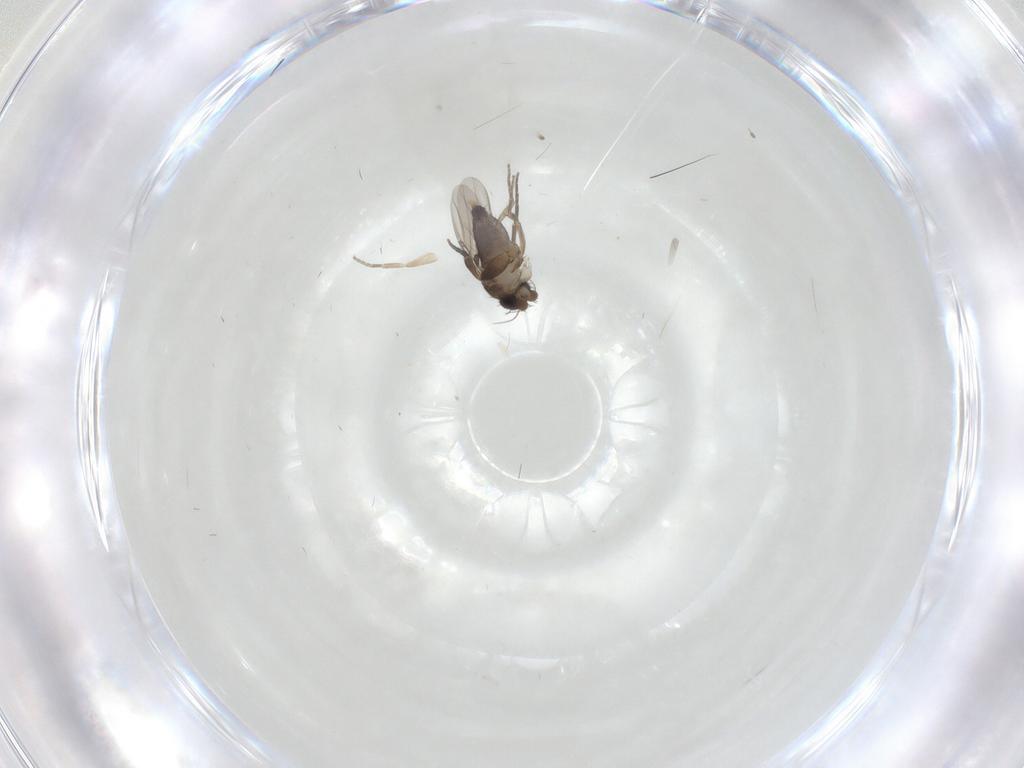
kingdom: Animalia
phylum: Arthropoda
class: Insecta
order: Diptera
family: Phoridae
